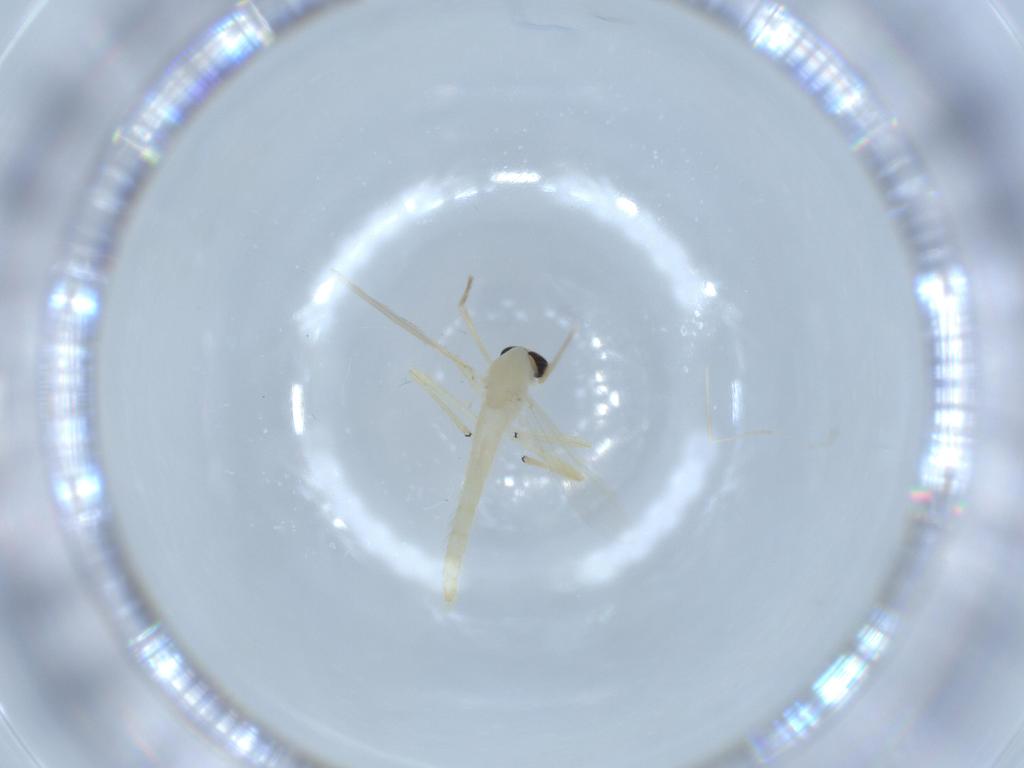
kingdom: Animalia
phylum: Arthropoda
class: Insecta
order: Diptera
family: Chironomidae
